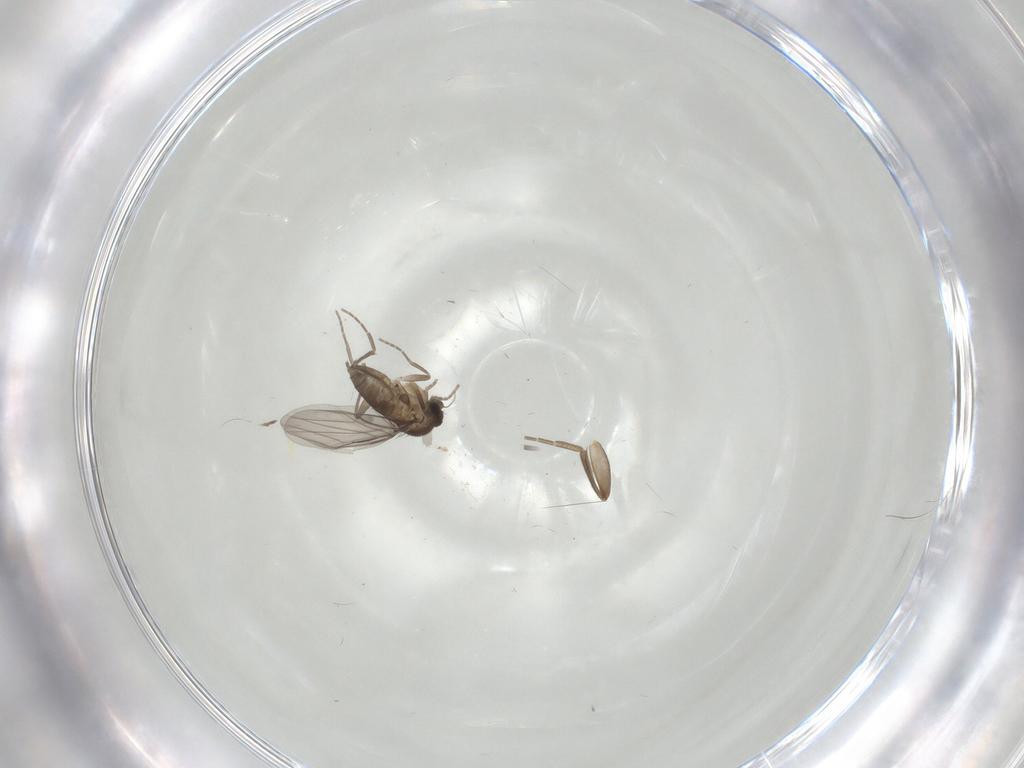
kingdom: Animalia
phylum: Arthropoda
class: Insecta
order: Diptera
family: Phoridae
